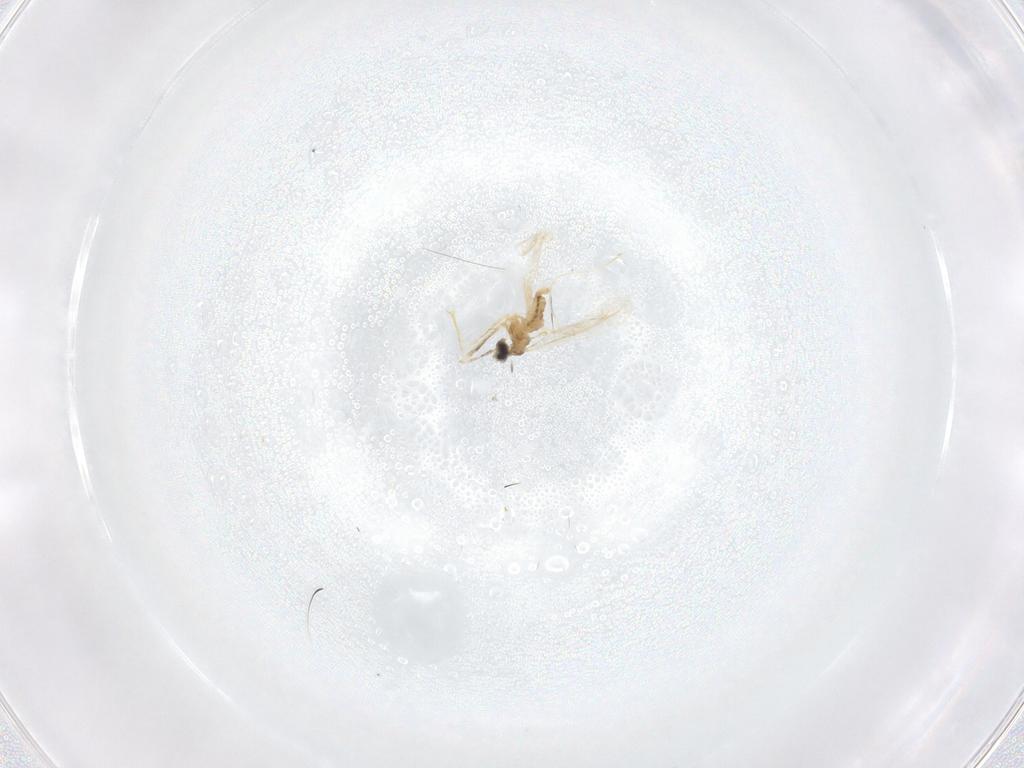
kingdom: Animalia
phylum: Arthropoda
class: Insecta
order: Diptera
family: Cecidomyiidae
